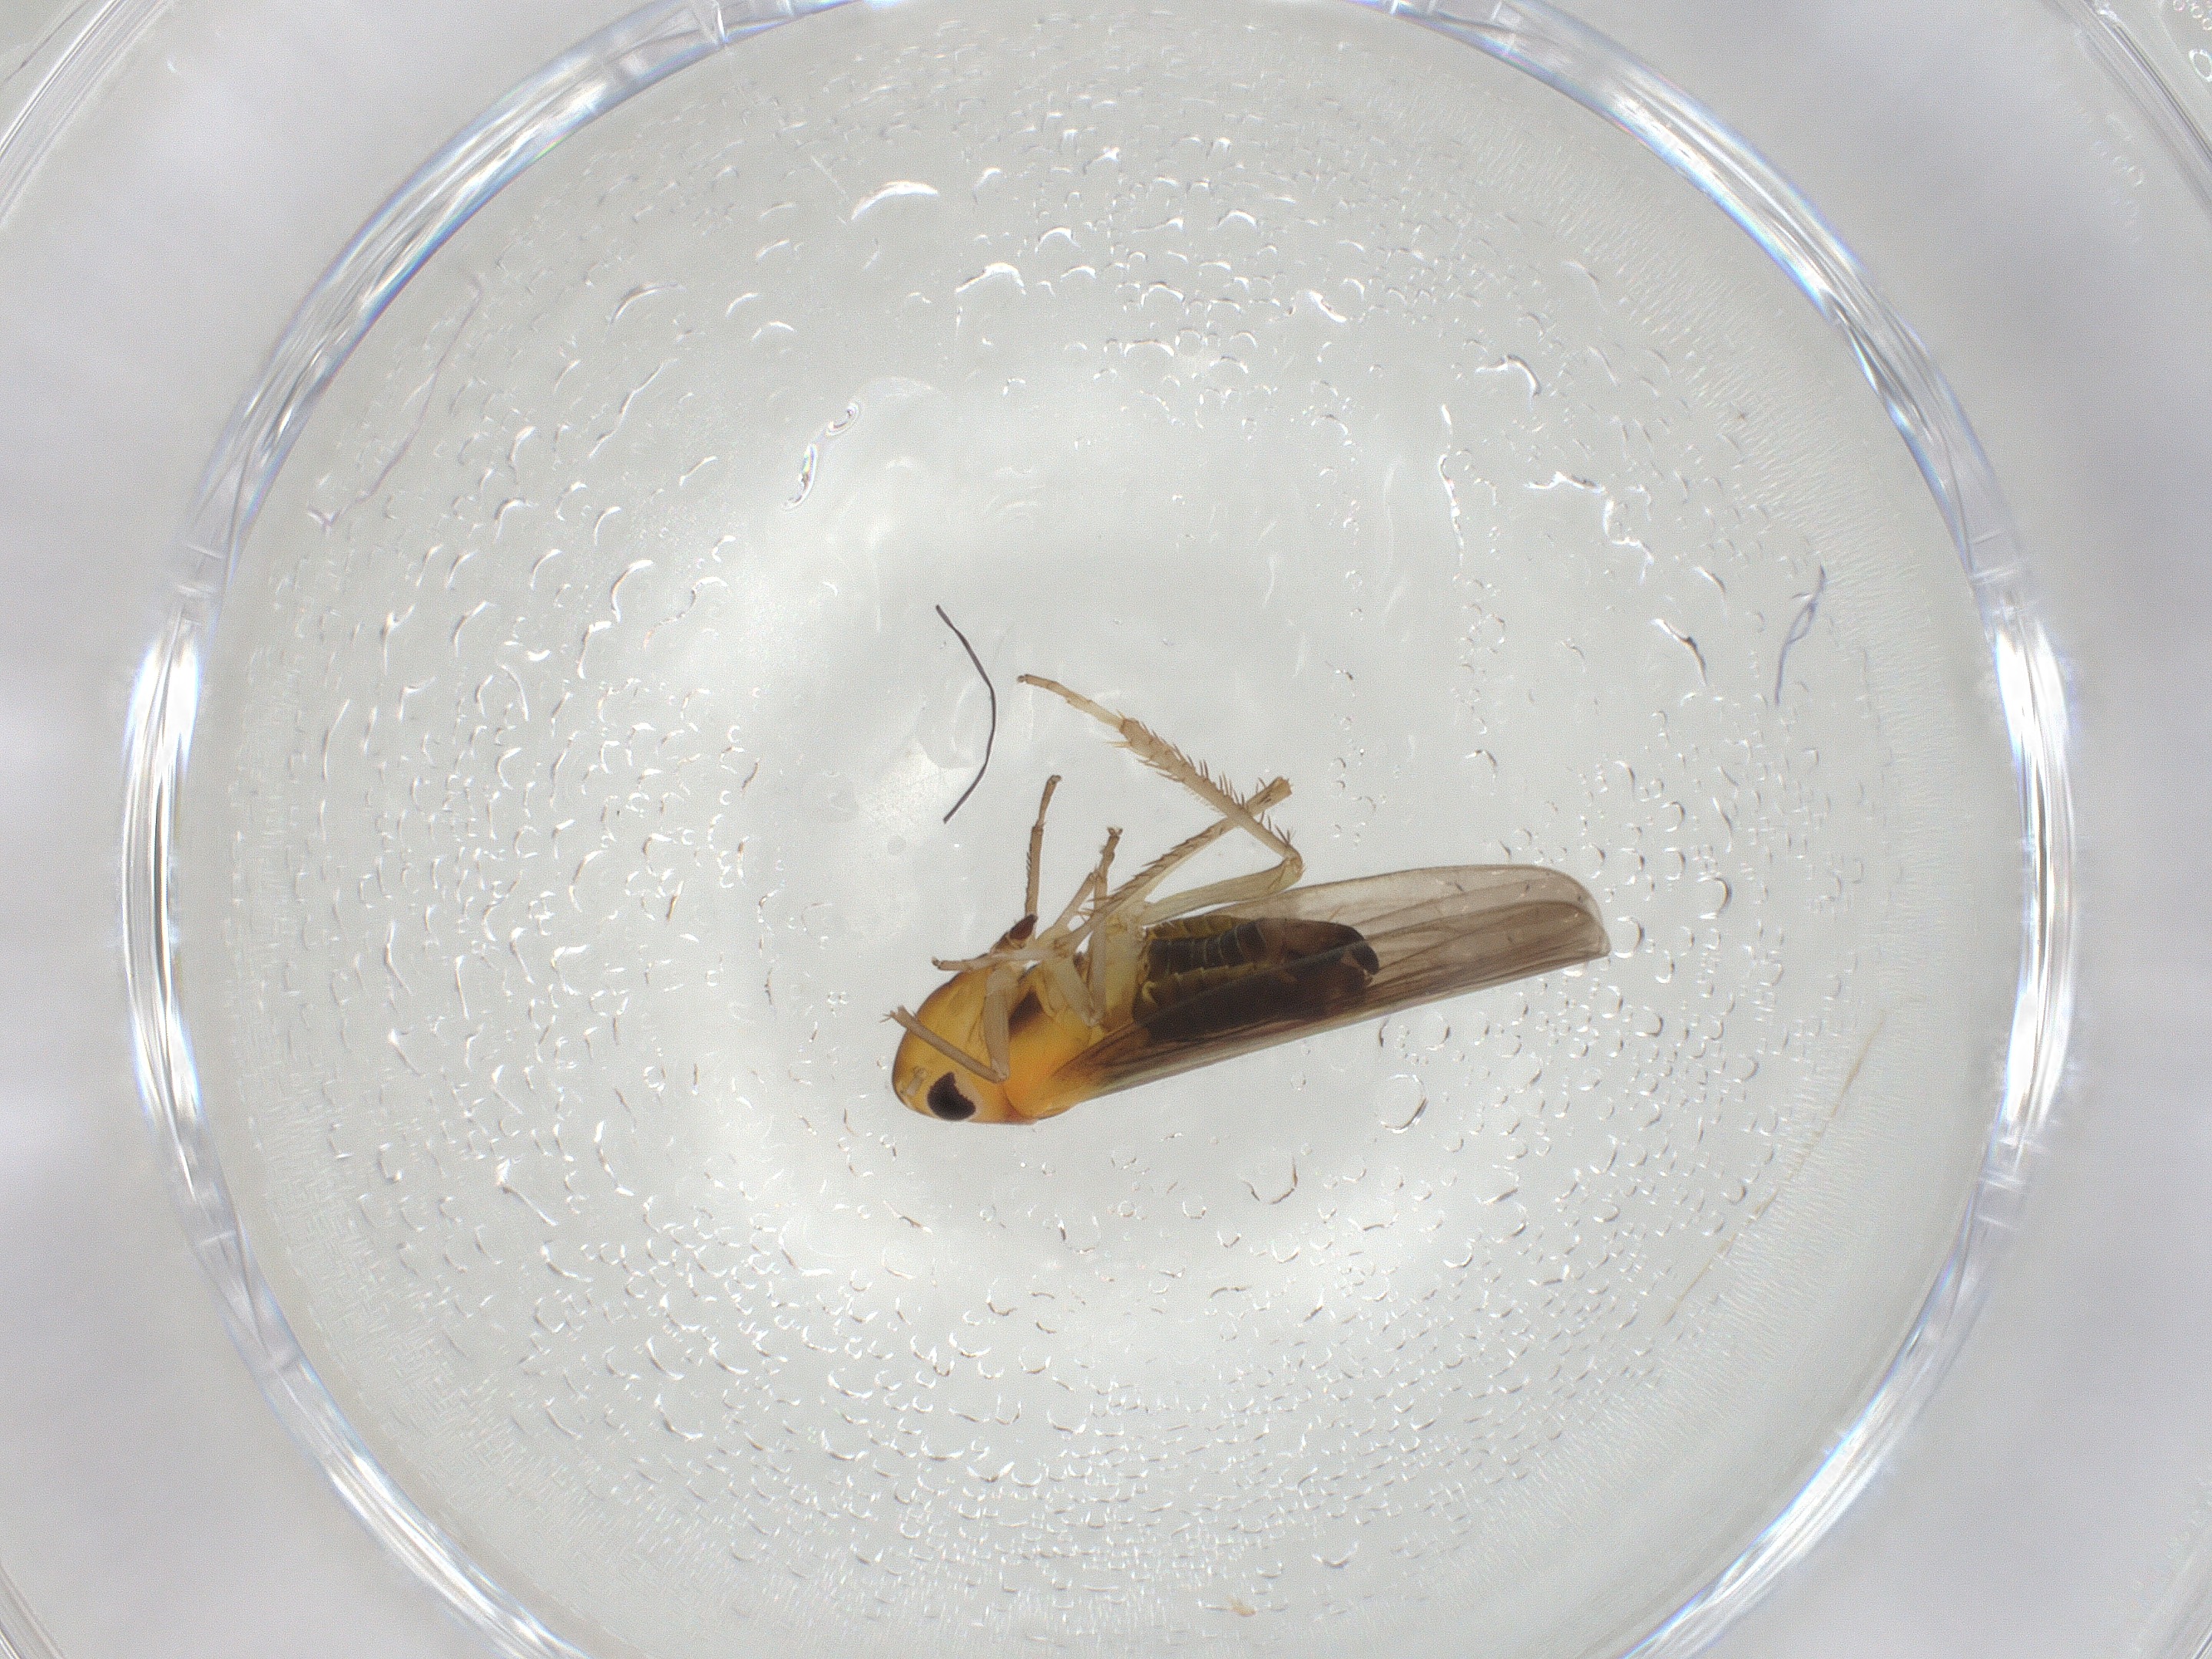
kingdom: Animalia
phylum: Arthropoda
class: Insecta
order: Hemiptera
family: Cicadellidae
